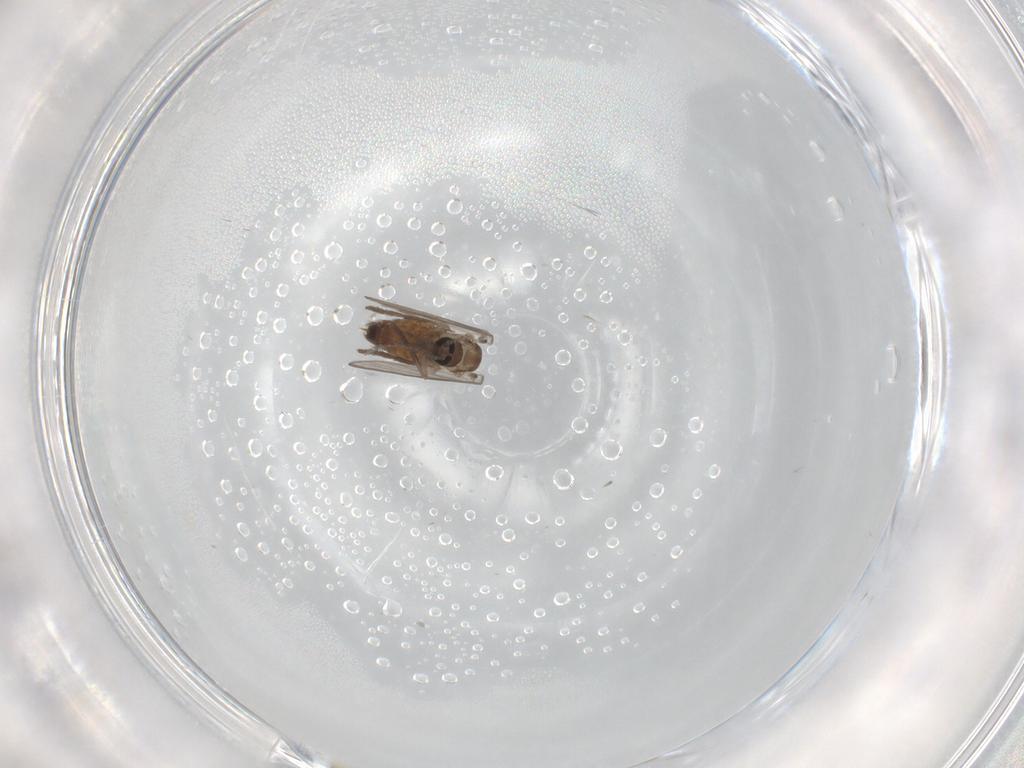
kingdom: Animalia
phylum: Arthropoda
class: Insecta
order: Diptera
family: Psychodidae
